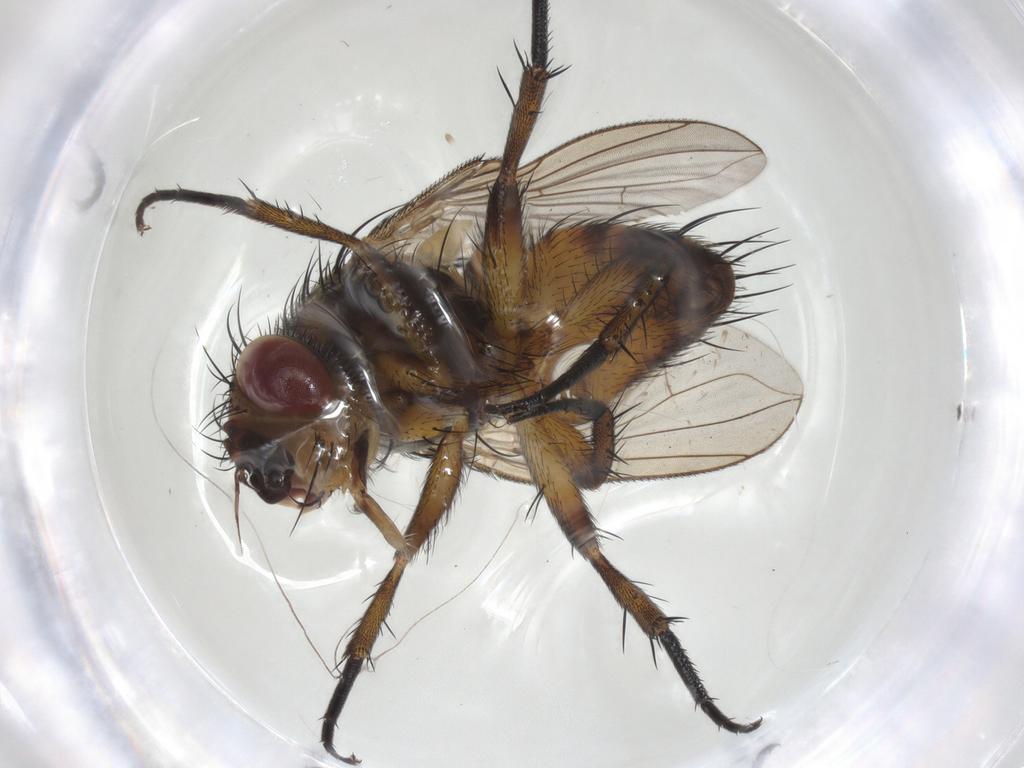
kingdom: Animalia
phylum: Arthropoda
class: Insecta
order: Diptera
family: Tachinidae
